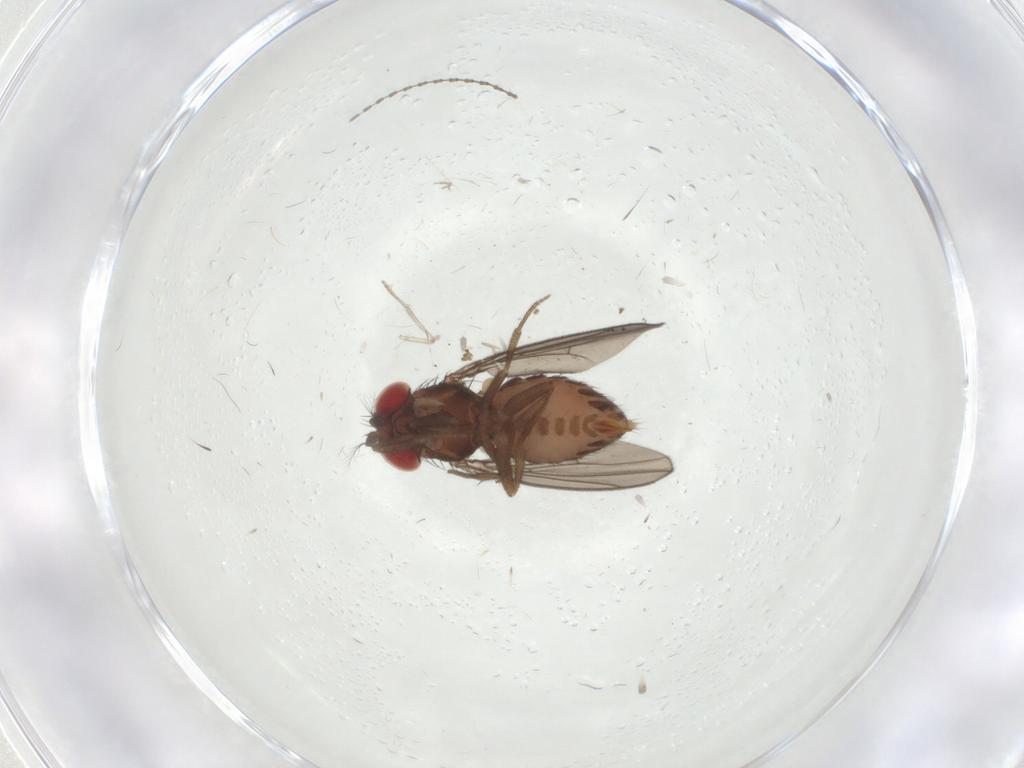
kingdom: Animalia
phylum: Arthropoda
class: Insecta
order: Diptera
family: Drosophilidae
